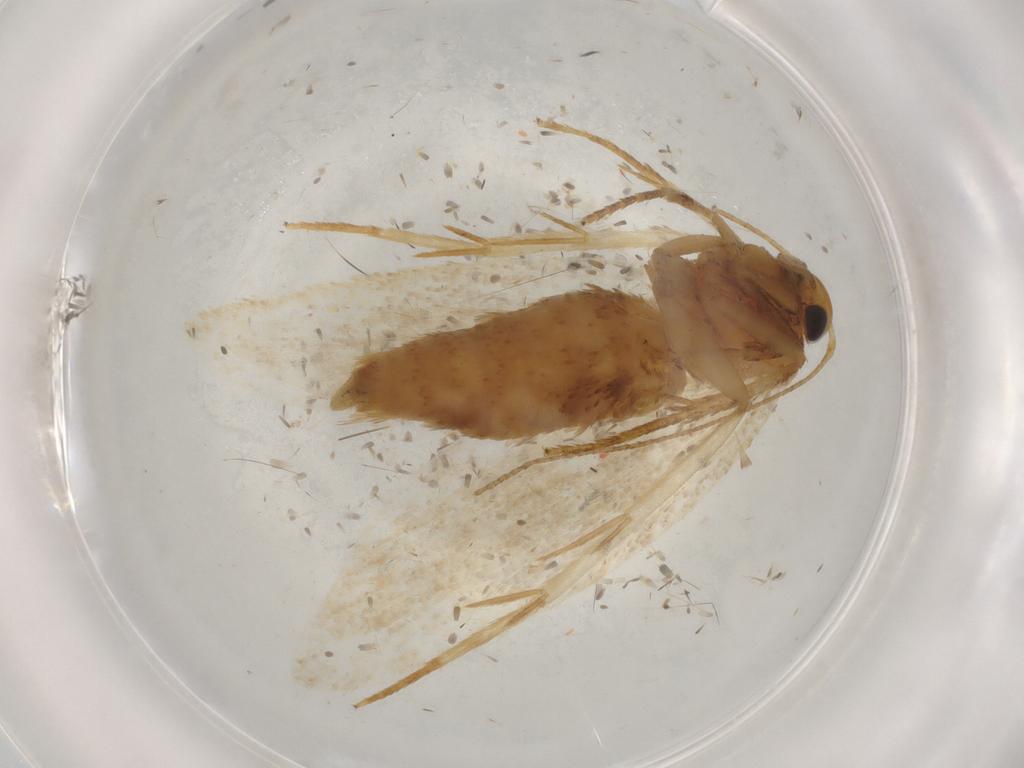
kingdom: Animalia
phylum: Arthropoda
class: Insecta
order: Lepidoptera
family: Gelechiidae
